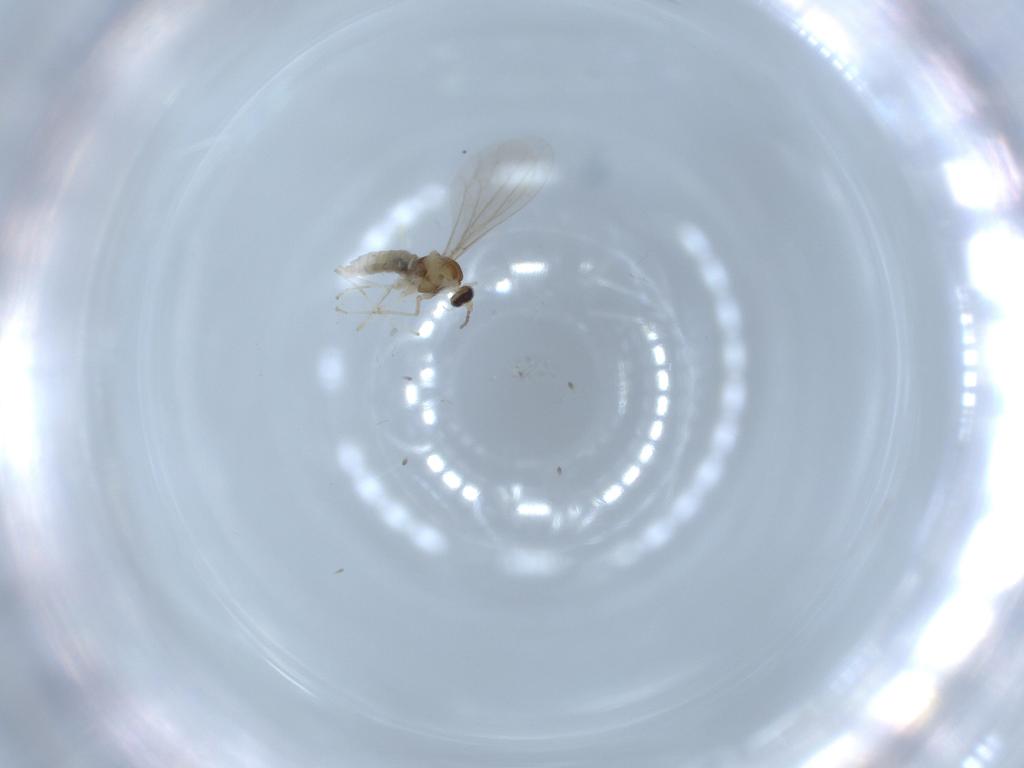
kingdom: Animalia
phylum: Arthropoda
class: Insecta
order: Diptera
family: Cecidomyiidae
